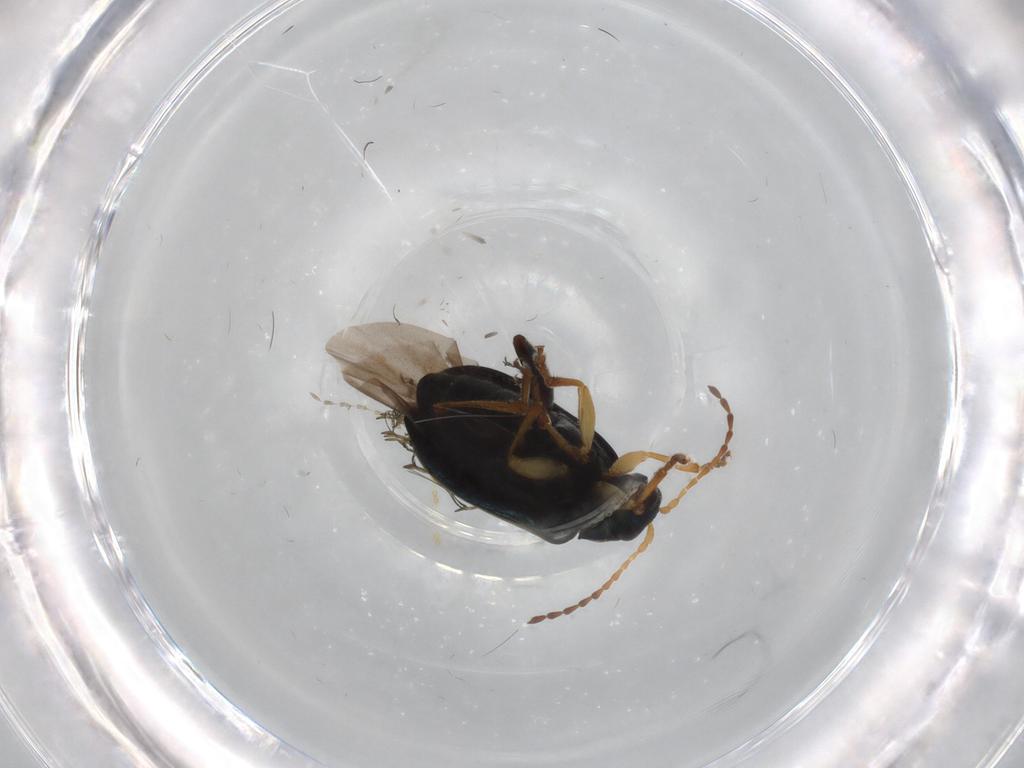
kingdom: Animalia
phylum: Arthropoda
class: Insecta
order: Coleoptera
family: Chrysomelidae
